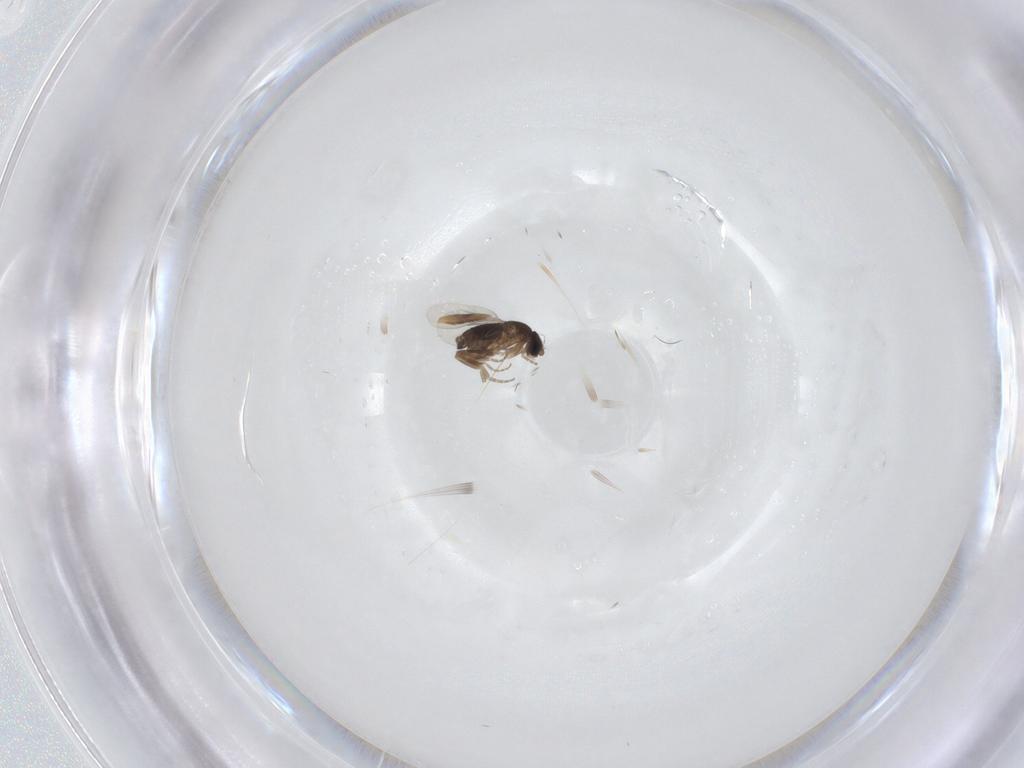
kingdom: Animalia
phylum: Arthropoda
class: Insecta
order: Diptera
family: Phoridae
